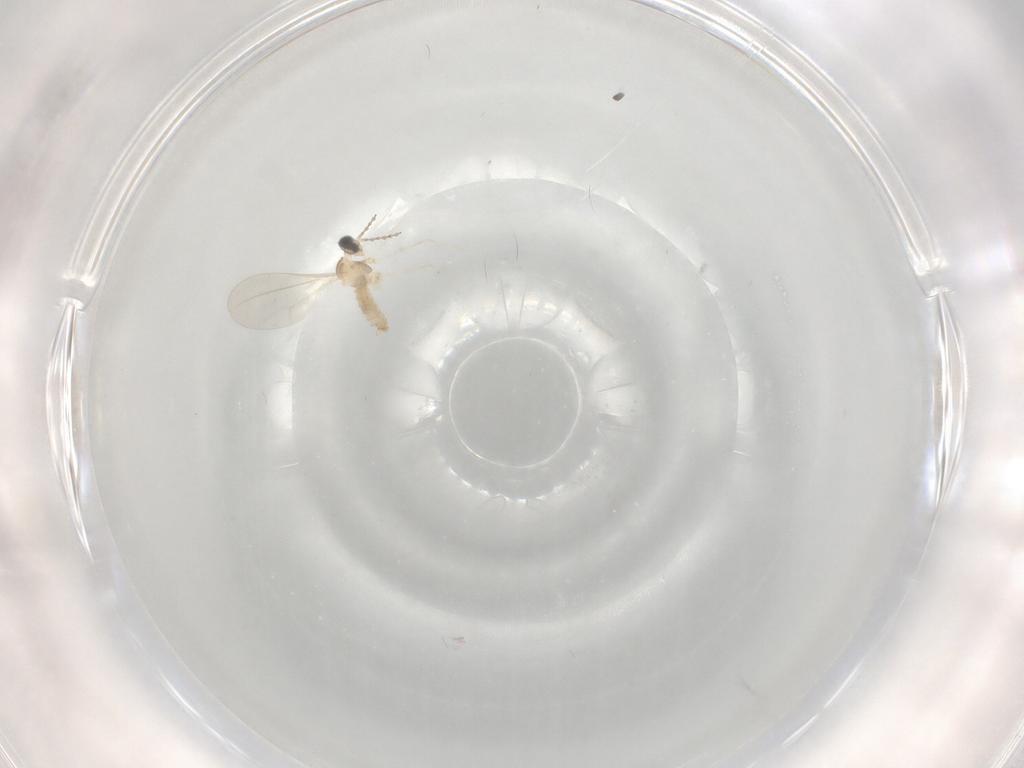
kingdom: Animalia
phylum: Arthropoda
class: Insecta
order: Diptera
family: Cecidomyiidae
